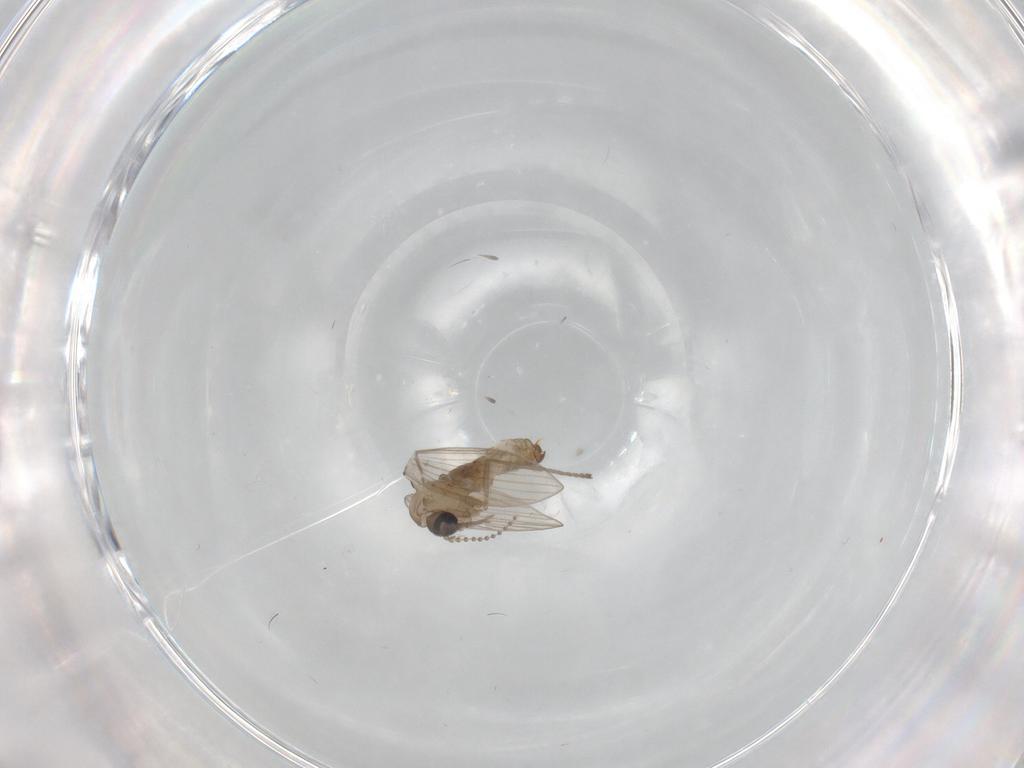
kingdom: Animalia
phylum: Arthropoda
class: Insecta
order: Diptera
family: Psychodidae
